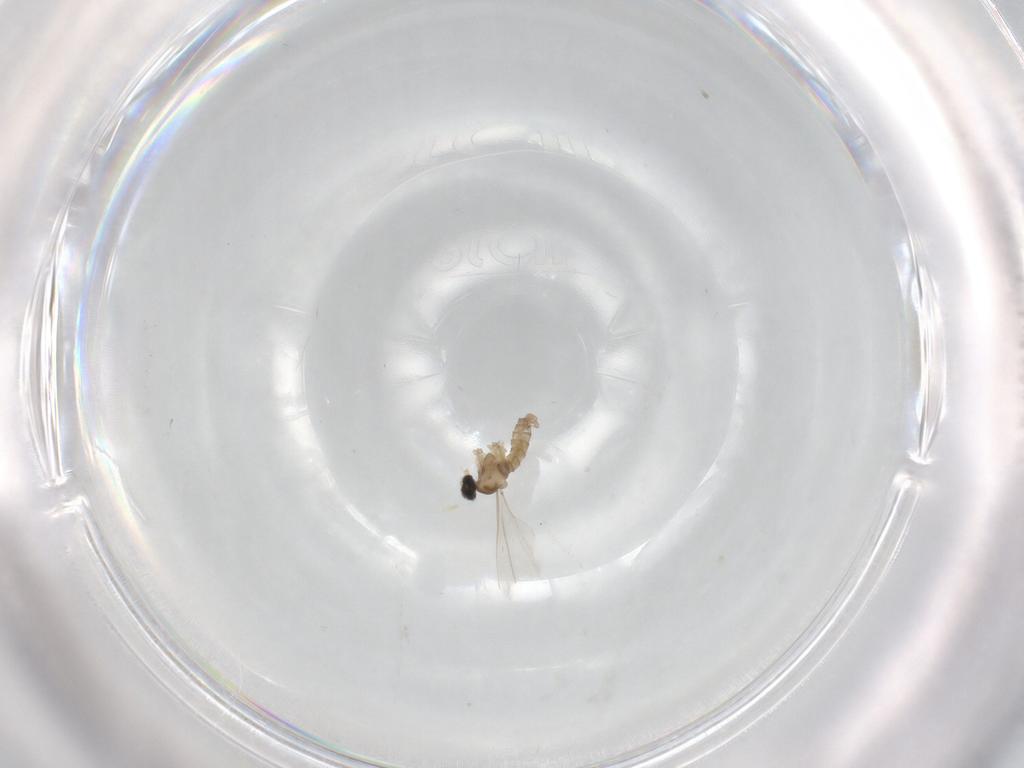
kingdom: Animalia
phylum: Arthropoda
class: Insecta
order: Diptera
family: Cecidomyiidae
